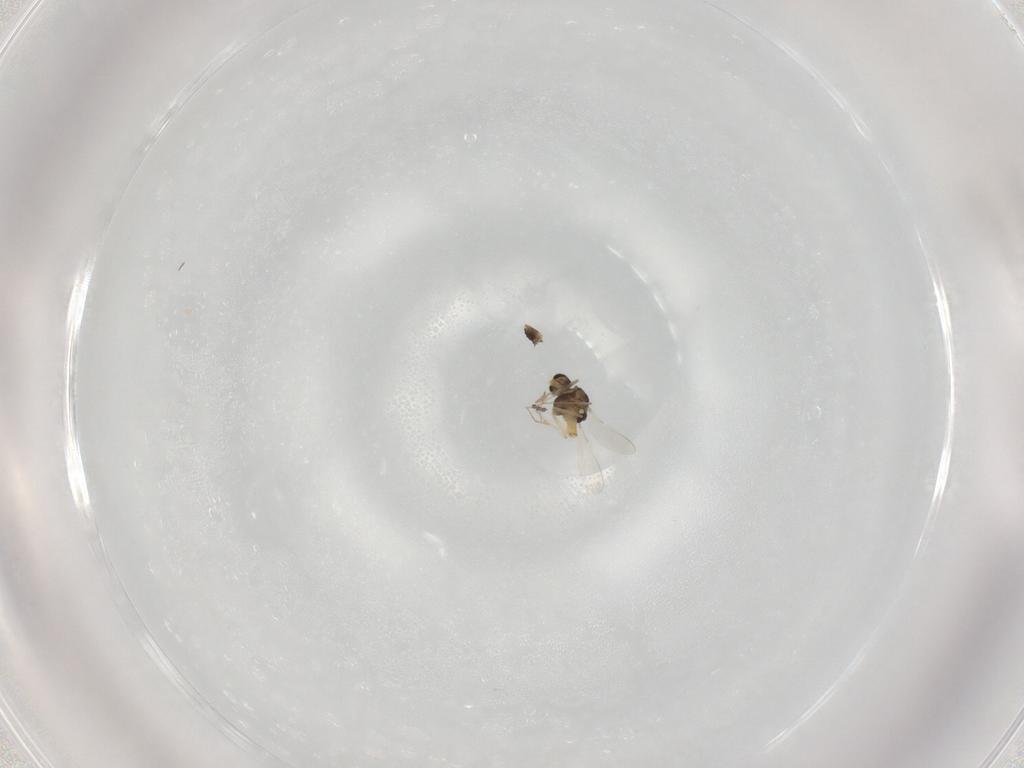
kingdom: Animalia
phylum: Arthropoda
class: Insecta
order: Diptera
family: Chironomidae
